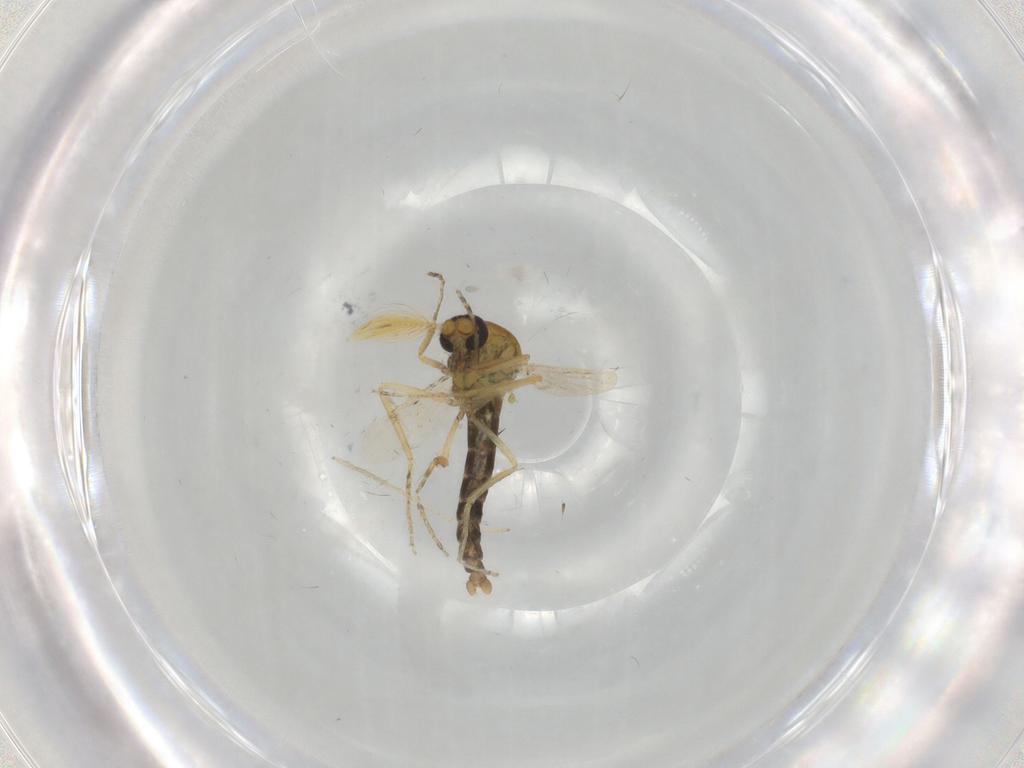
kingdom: Animalia
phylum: Arthropoda
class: Insecta
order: Diptera
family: Ceratopogonidae
